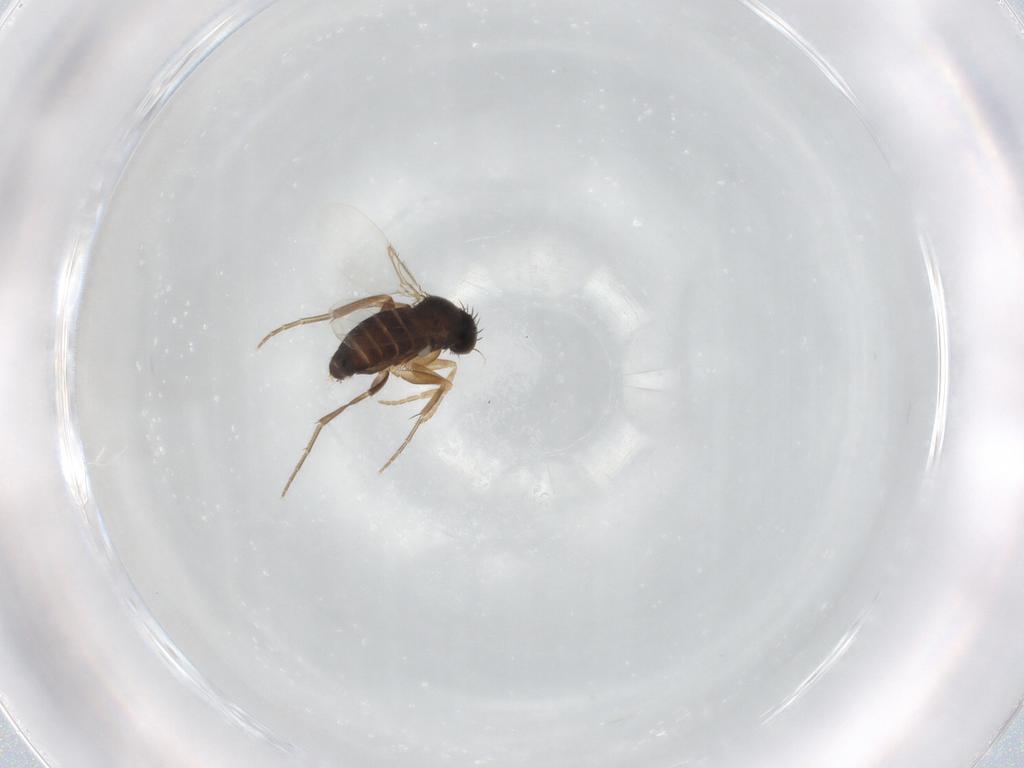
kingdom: Animalia
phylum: Arthropoda
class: Insecta
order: Diptera
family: Phoridae
